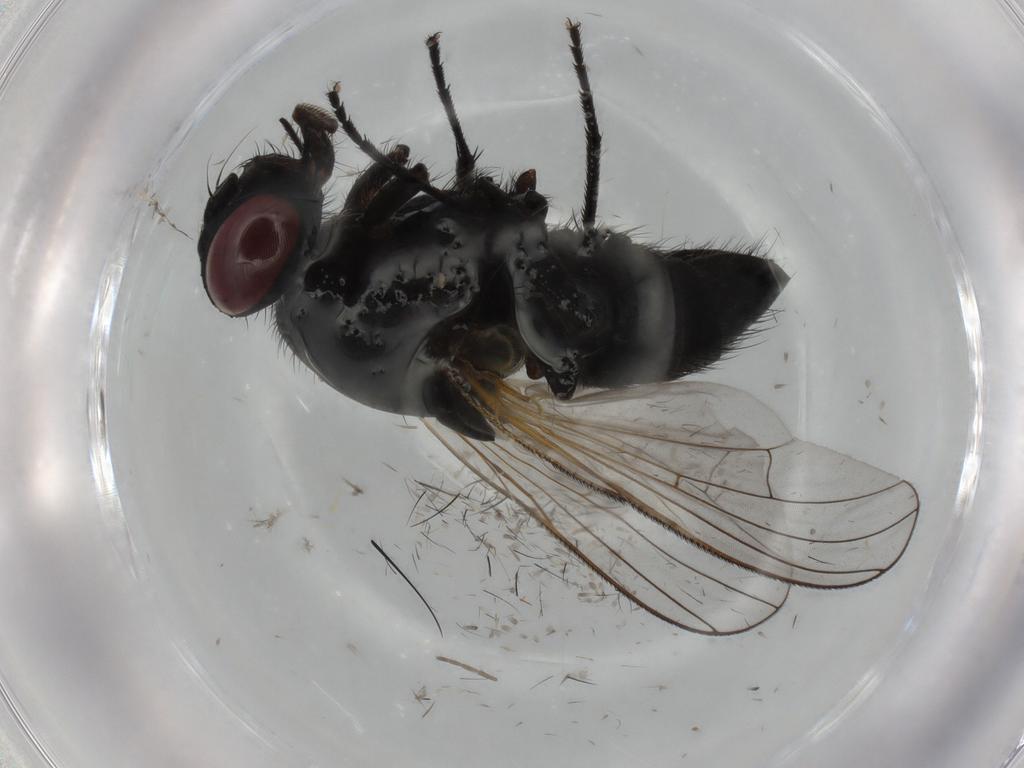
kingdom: Animalia
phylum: Arthropoda
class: Insecta
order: Diptera
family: Muscidae
